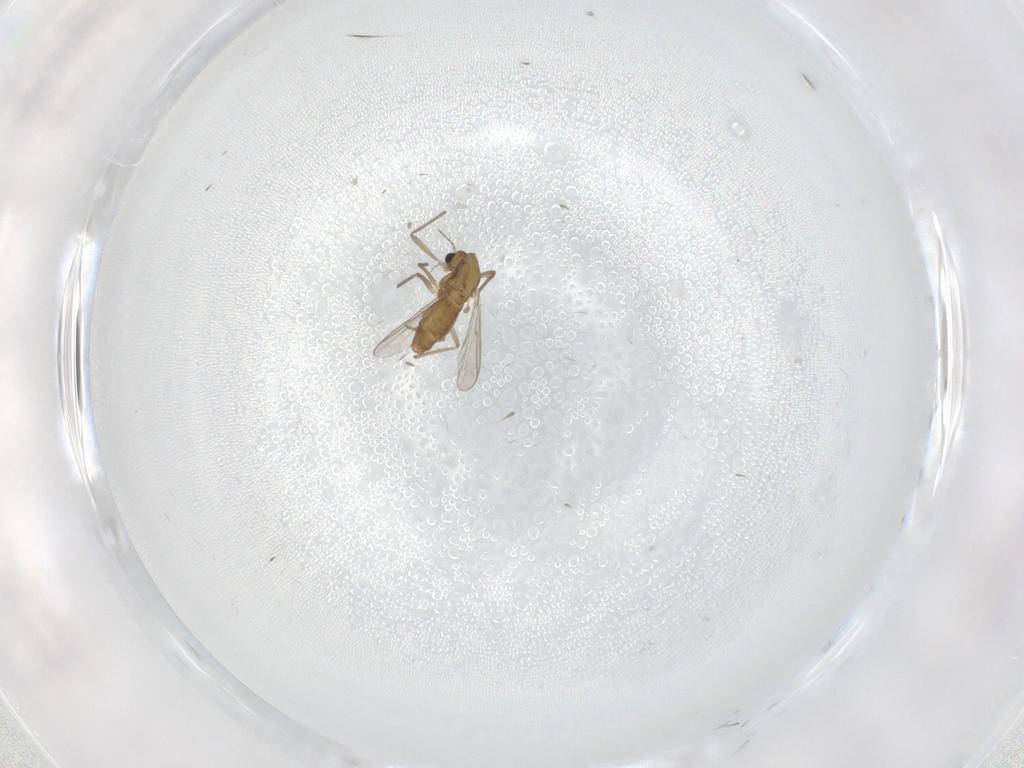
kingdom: Animalia
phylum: Arthropoda
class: Insecta
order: Diptera
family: Chironomidae
